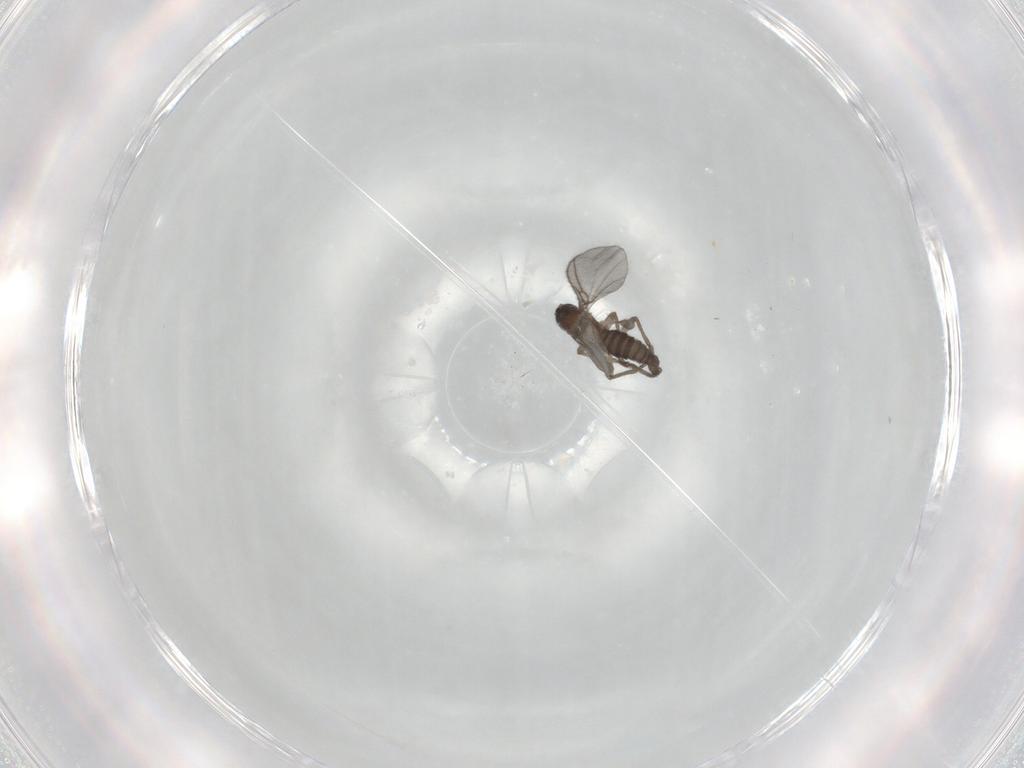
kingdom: Animalia
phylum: Arthropoda
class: Insecta
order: Diptera
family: Sciaridae
